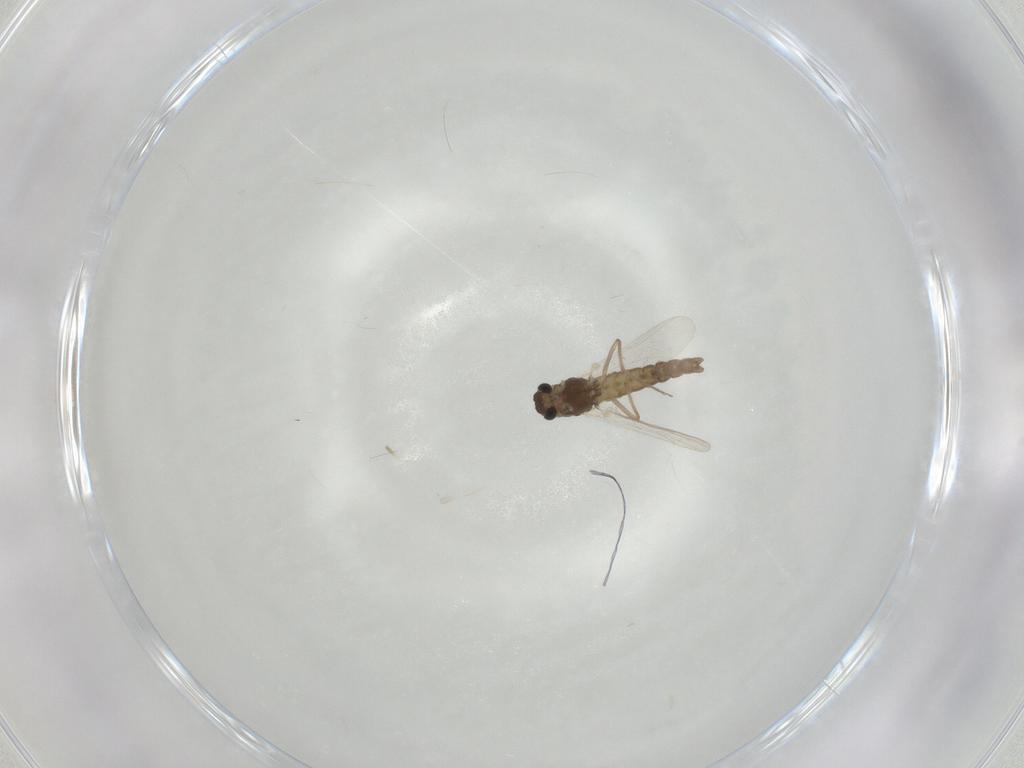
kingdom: Animalia
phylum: Arthropoda
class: Insecta
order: Diptera
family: Chironomidae
